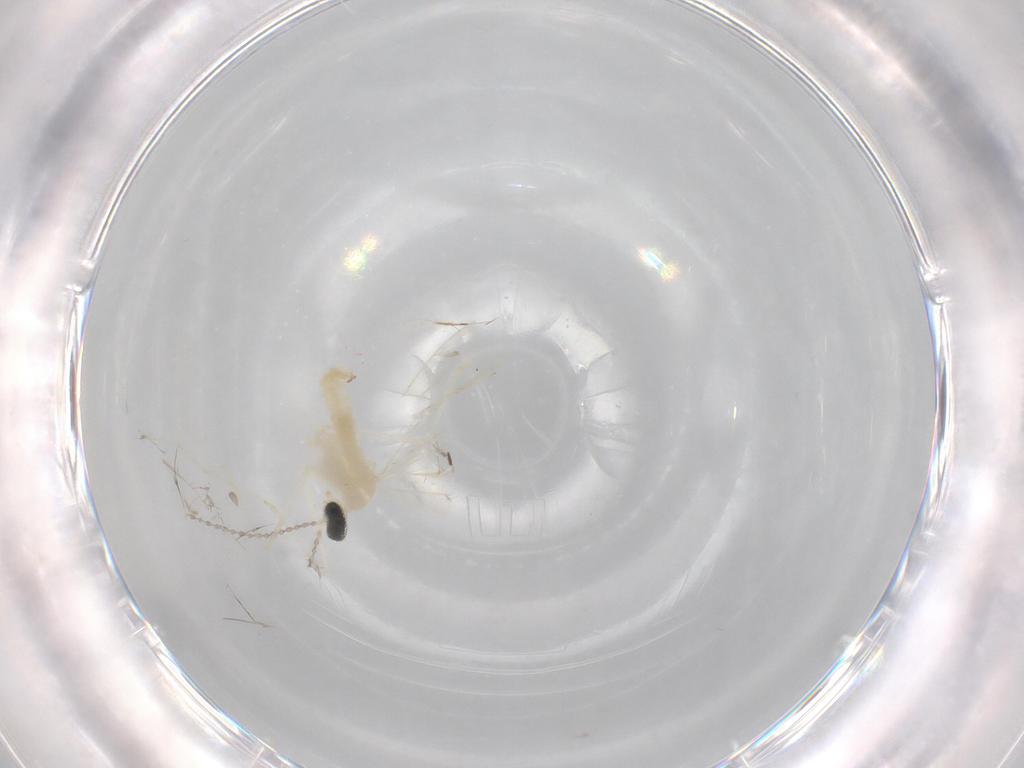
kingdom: Animalia
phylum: Arthropoda
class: Insecta
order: Diptera
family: Cecidomyiidae
